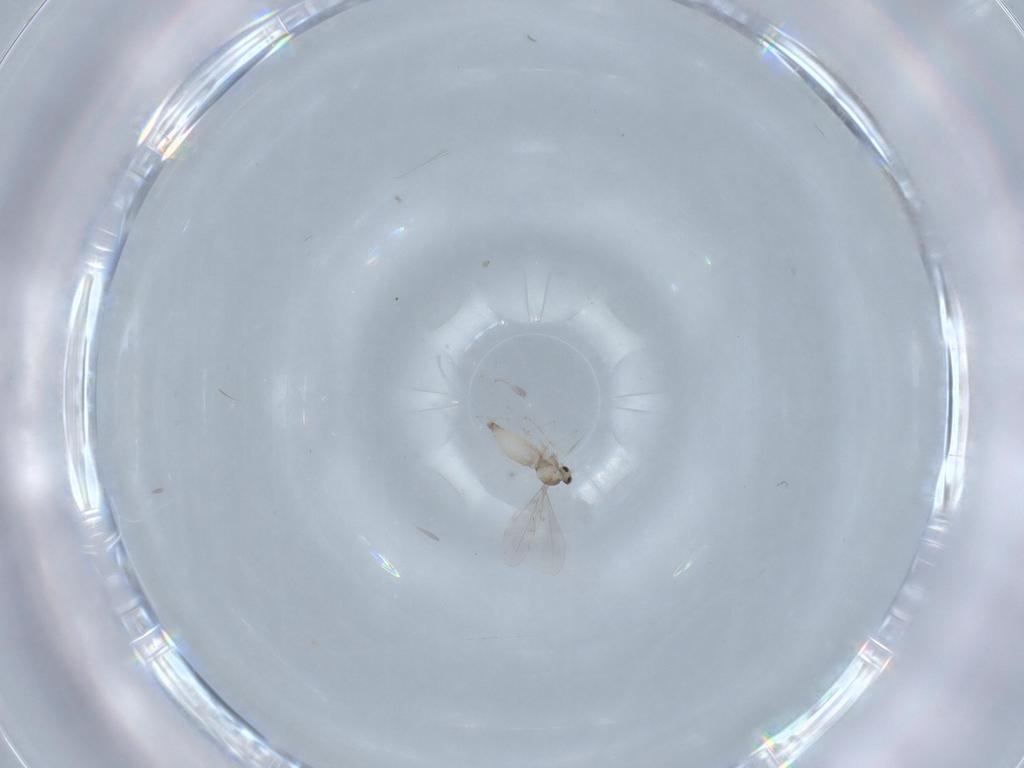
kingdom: Animalia
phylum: Arthropoda
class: Insecta
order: Diptera
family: Cecidomyiidae
